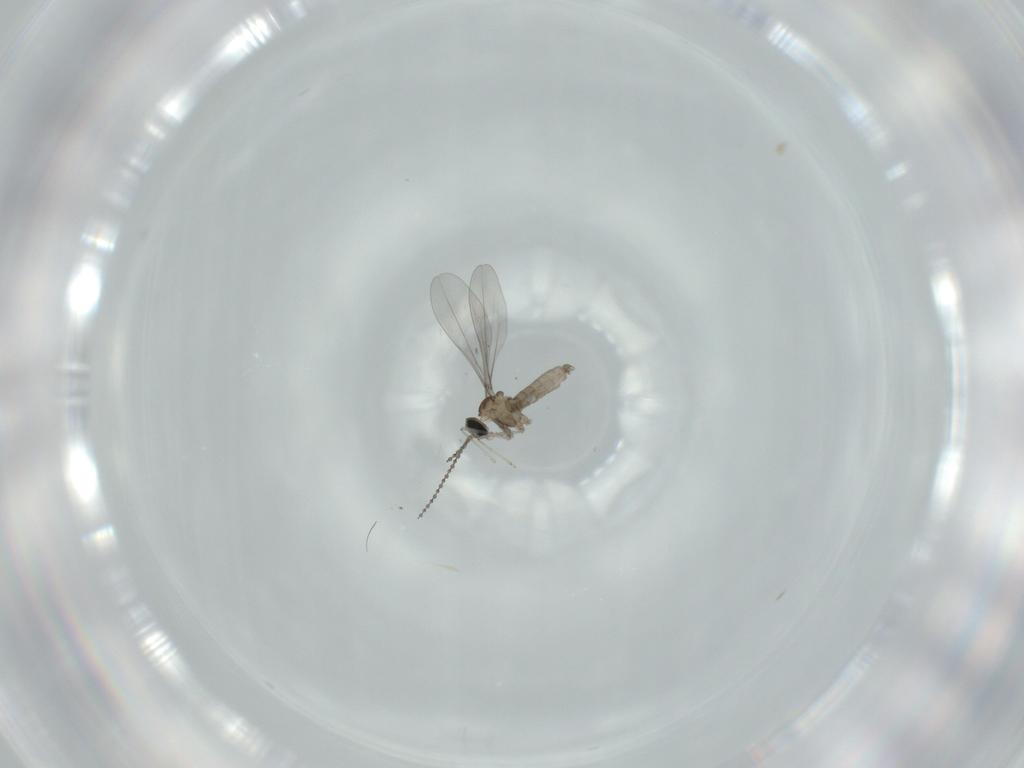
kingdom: Animalia
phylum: Arthropoda
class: Insecta
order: Diptera
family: Cecidomyiidae
